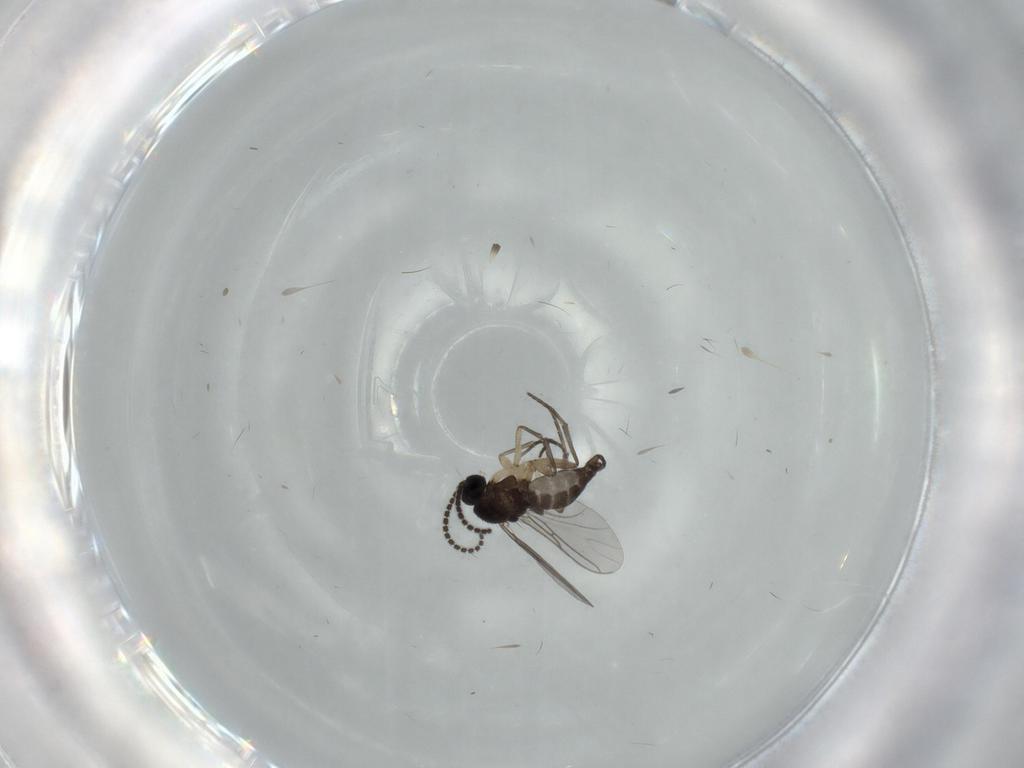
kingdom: Animalia
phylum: Arthropoda
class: Insecta
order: Diptera
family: Sciaridae
